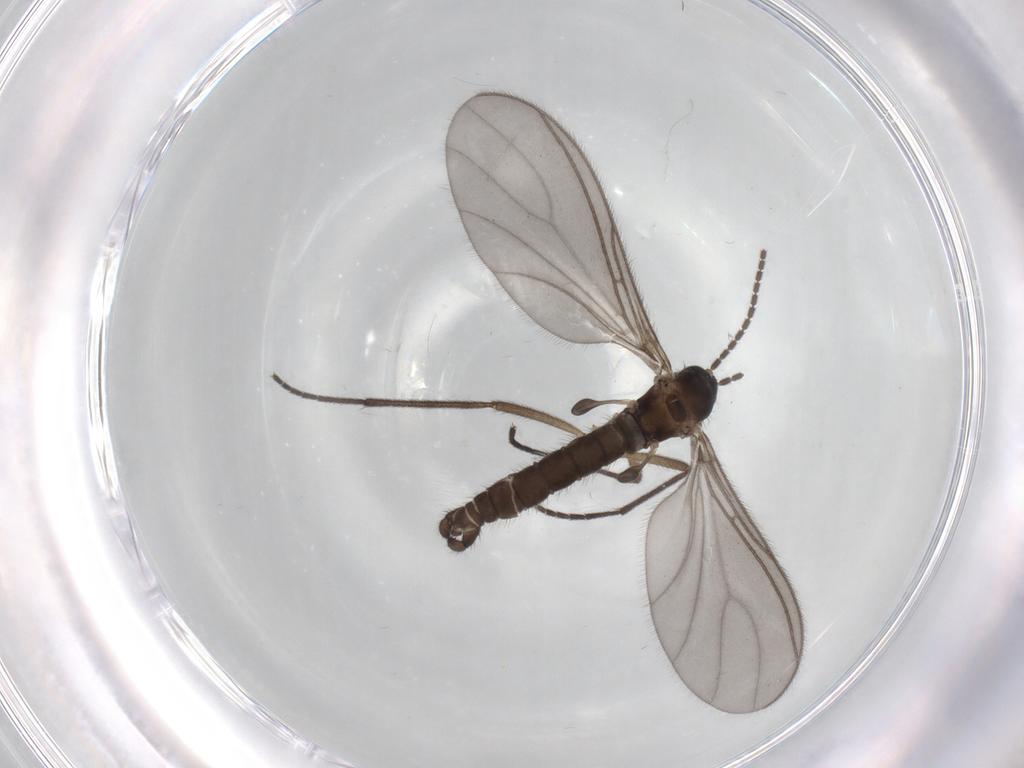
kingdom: Animalia
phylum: Arthropoda
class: Insecta
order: Diptera
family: Sciaridae
